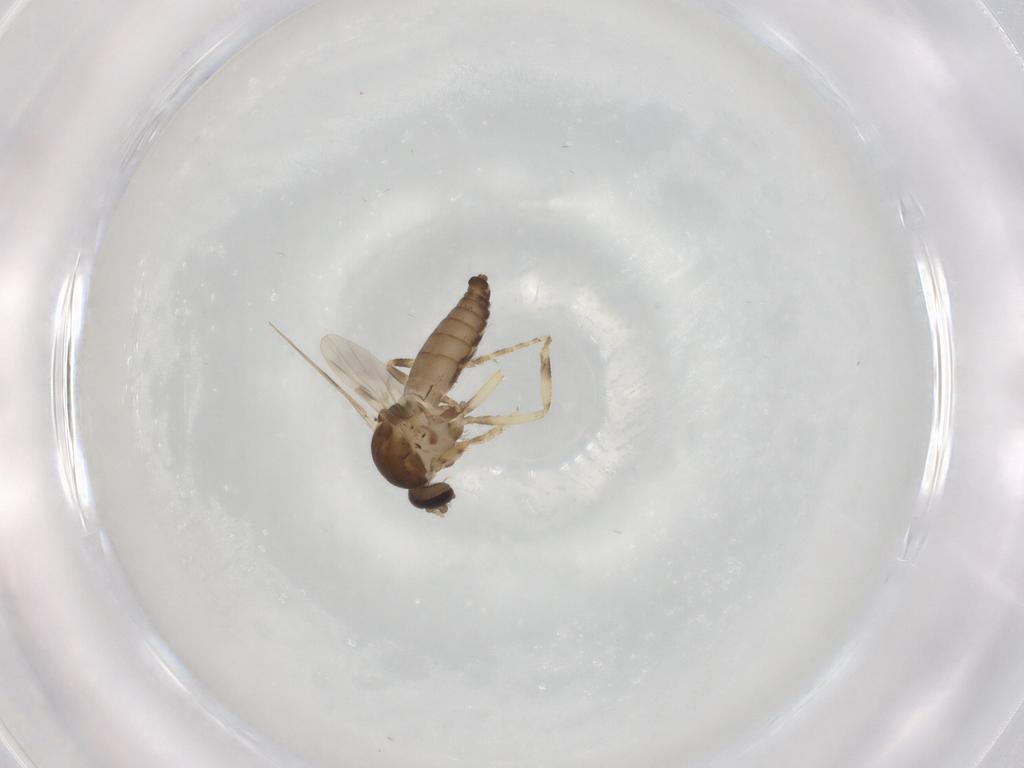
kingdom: Animalia
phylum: Arthropoda
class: Insecta
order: Diptera
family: Ceratopogonidae
